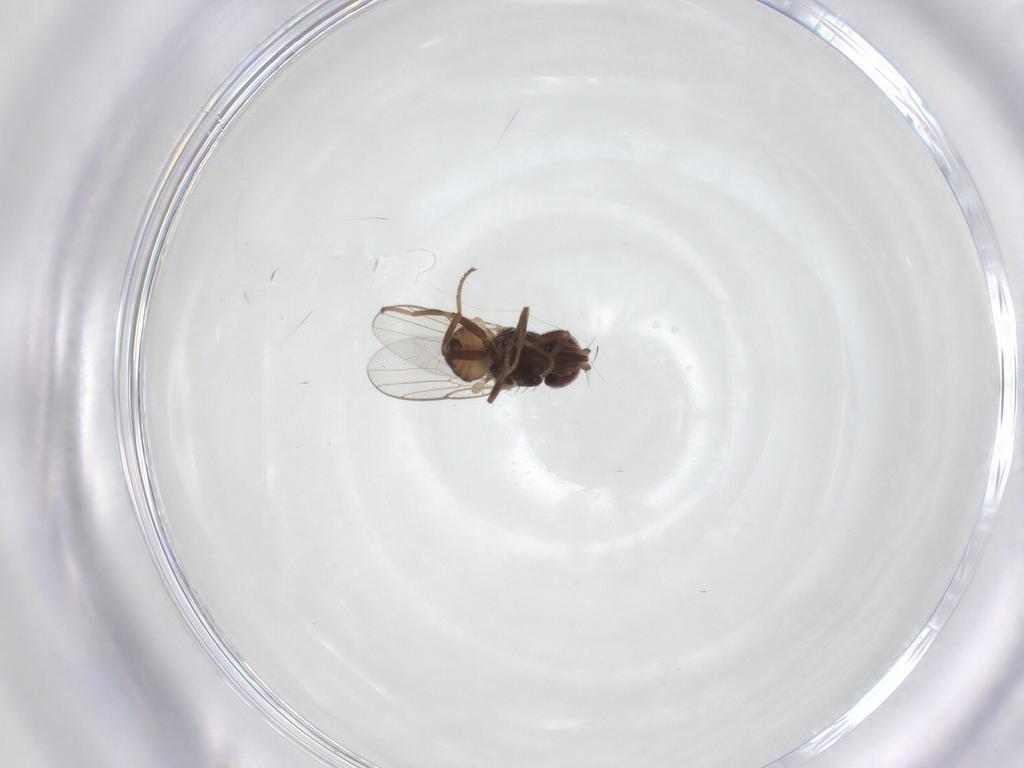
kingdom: Animalia
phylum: Arthropoda
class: Insecta
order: Diptera
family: Chloropidae
